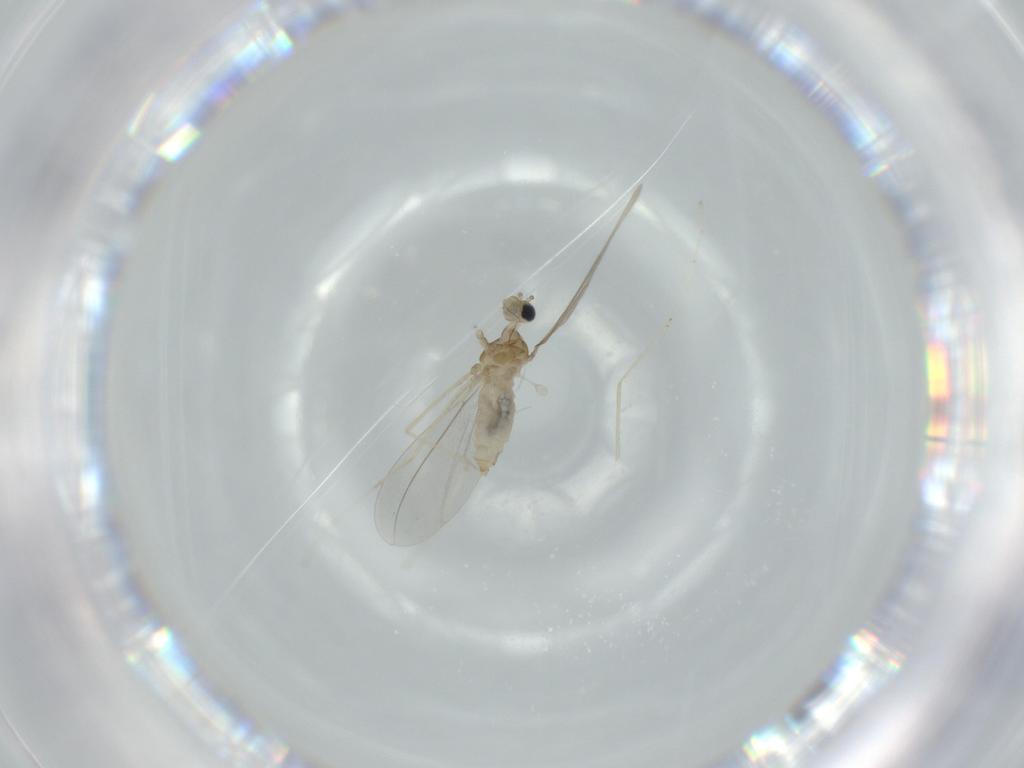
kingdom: Animalia
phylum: Arthropoda
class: Insecta
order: Diptera
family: Cecidomyiidae
